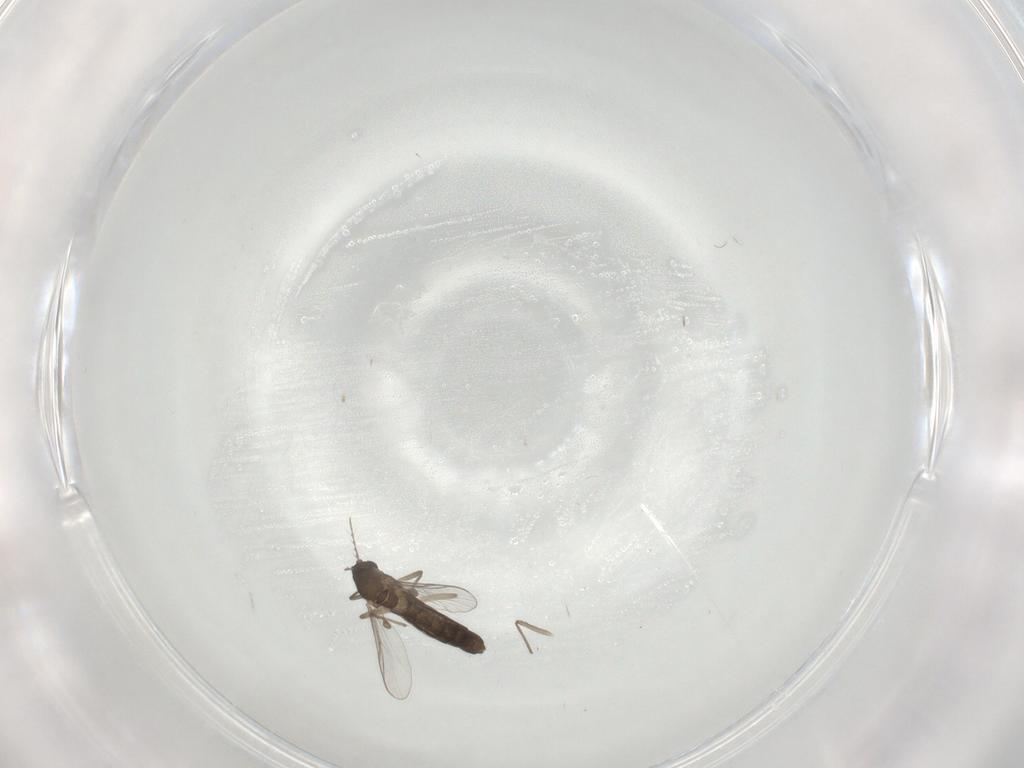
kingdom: Animalia
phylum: Arthropoda
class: Insecta
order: Diptera
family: Chironomidae
